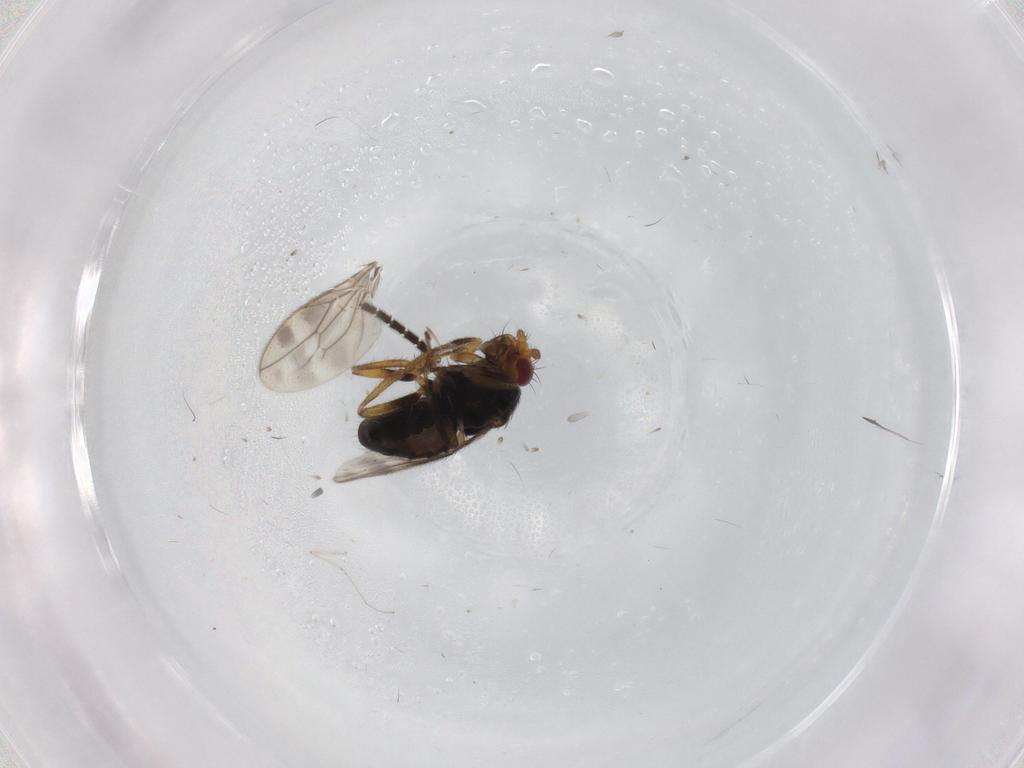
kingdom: Animalia
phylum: Arthropoda
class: Insecta
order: Diptera
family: Sphaeroceridae
